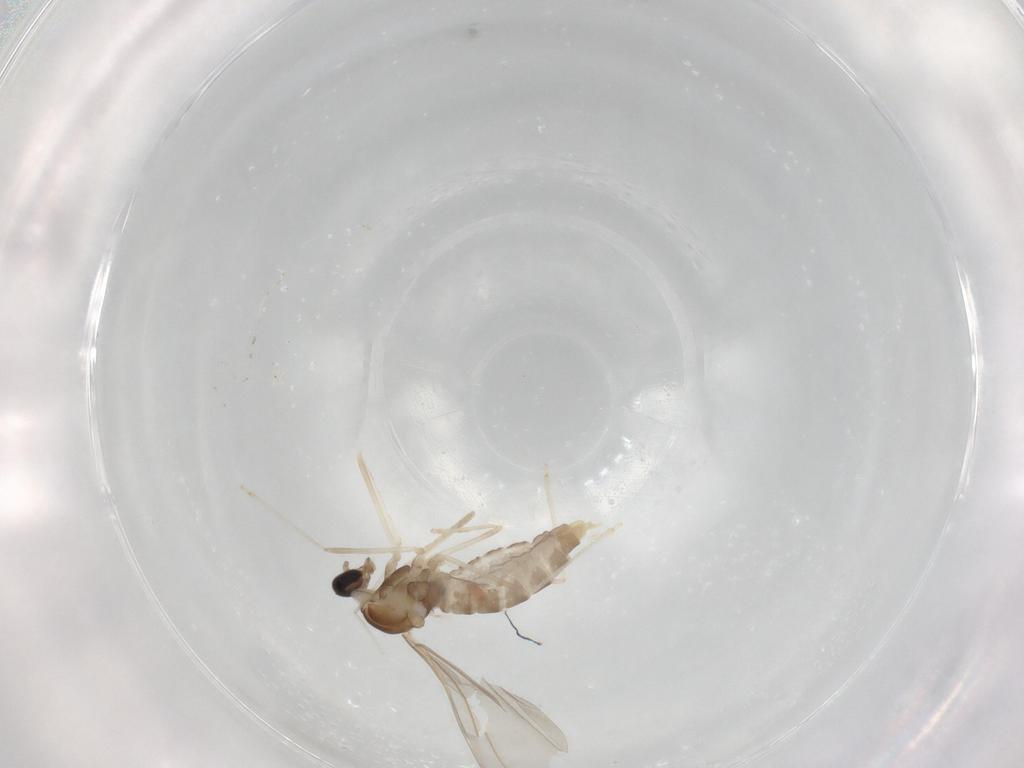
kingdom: Animalia
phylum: Arthropoda
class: Insecta
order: Diptera
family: Cecidomyiidae
